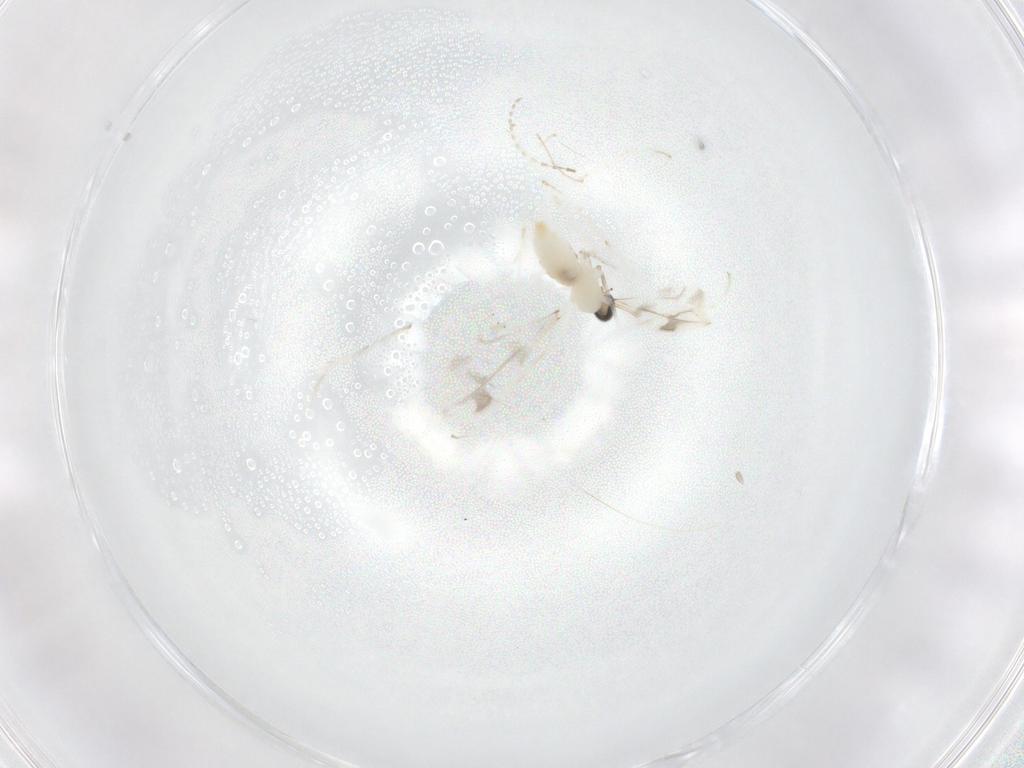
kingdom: Animalia
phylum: Arthropoda
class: Insecta
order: Diptera
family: Cecidomyiidae
